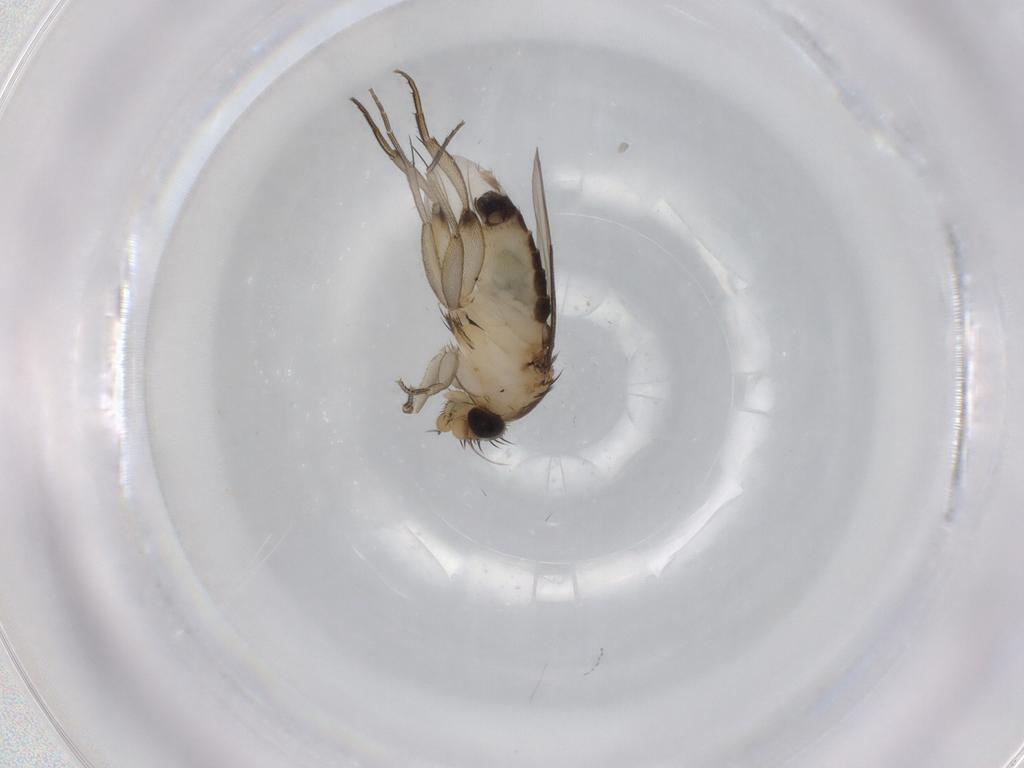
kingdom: Animalia
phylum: Arthropoda
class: Insecta
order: Diptera
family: Phoridae
